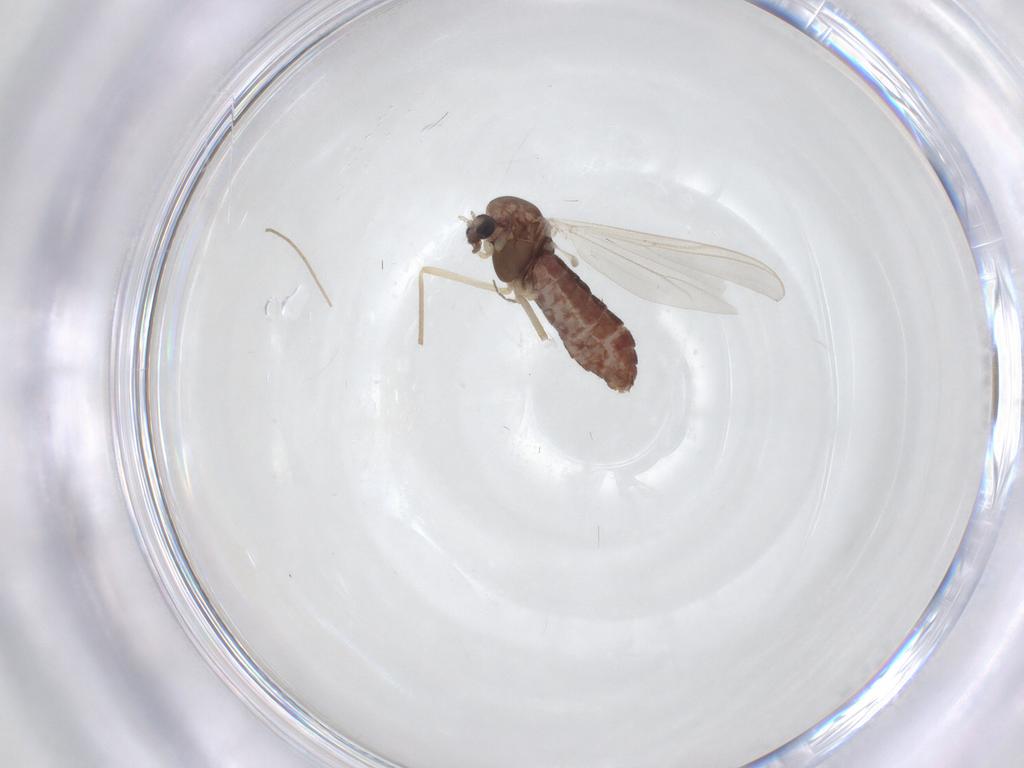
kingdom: Animalia
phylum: Arthropoda
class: Insecta
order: Diptera
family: Chironomidae
